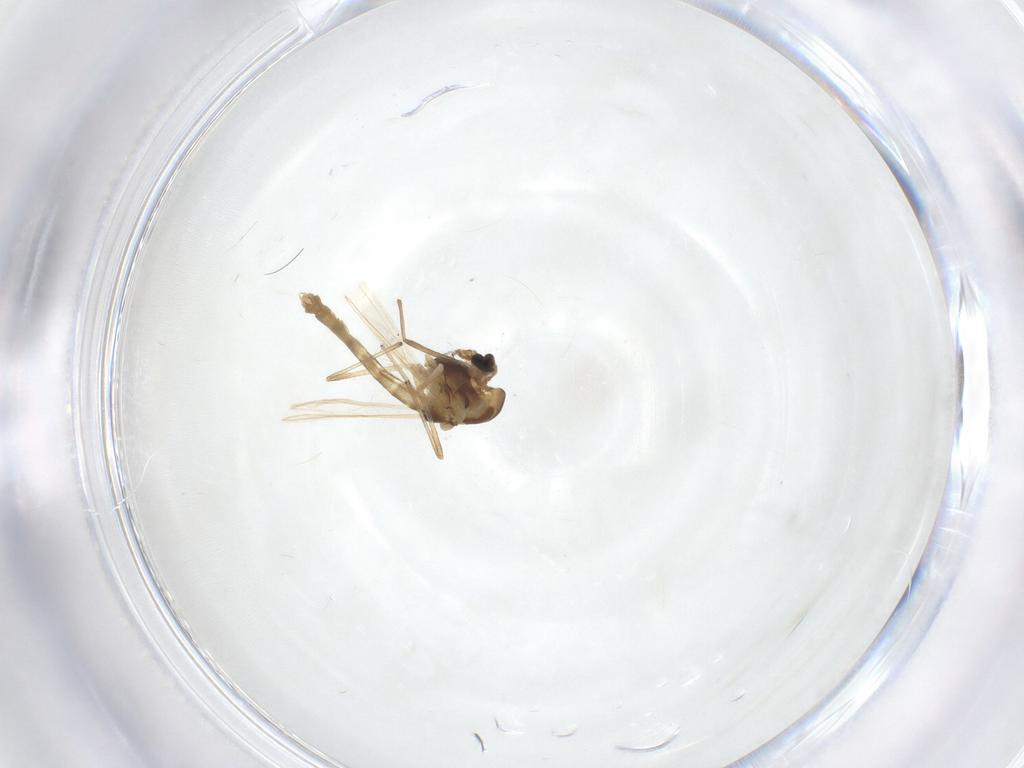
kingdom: Animalia
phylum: Arthropoda
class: Insecta
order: Diptera
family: Chironomidae
